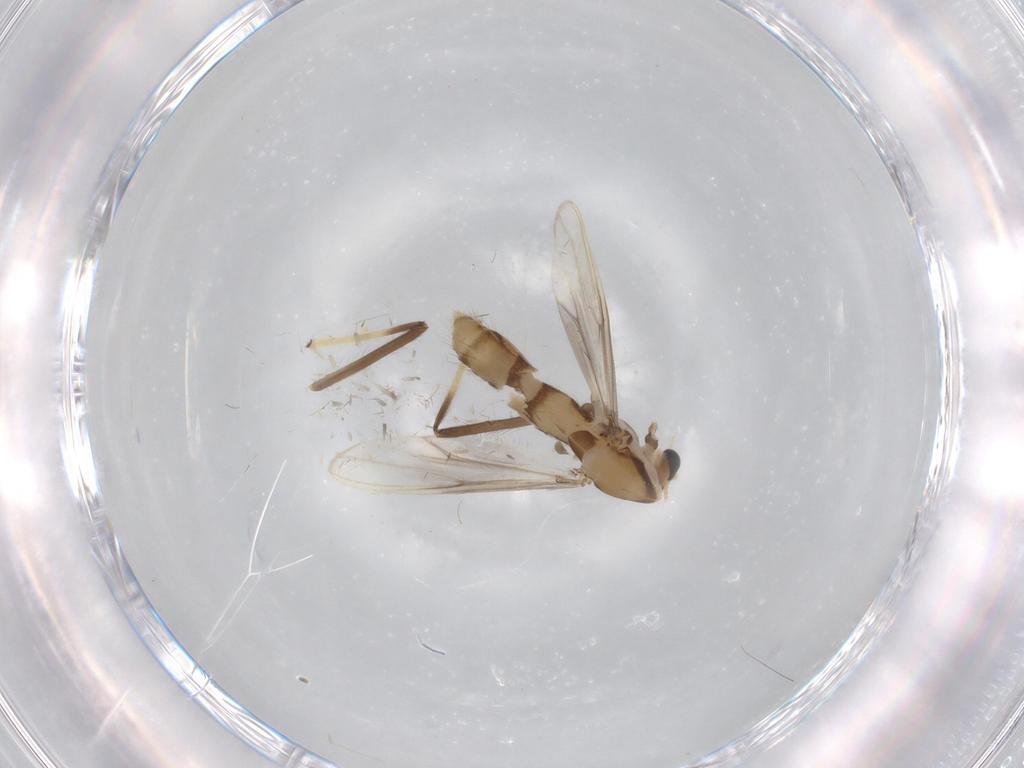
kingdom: Animalia
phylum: Arthropoda
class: Insecta
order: Diptera
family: Chironomidae
